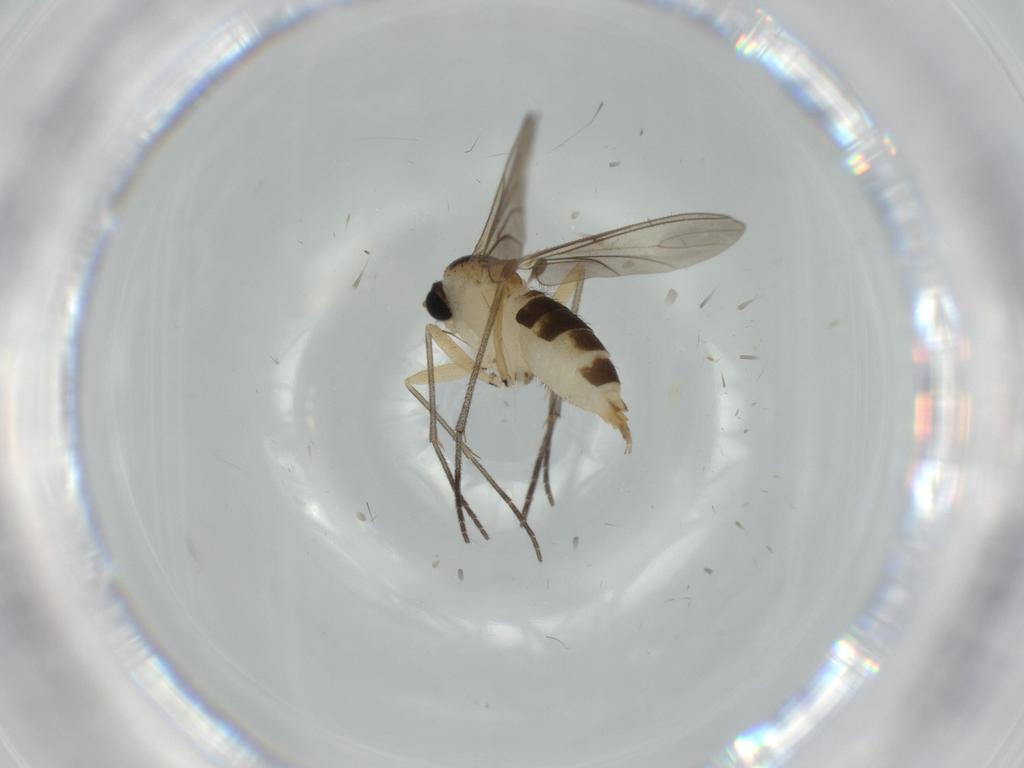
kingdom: Animalia
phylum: Arthropoda
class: Insecta
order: Diptera
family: Sciaridae
